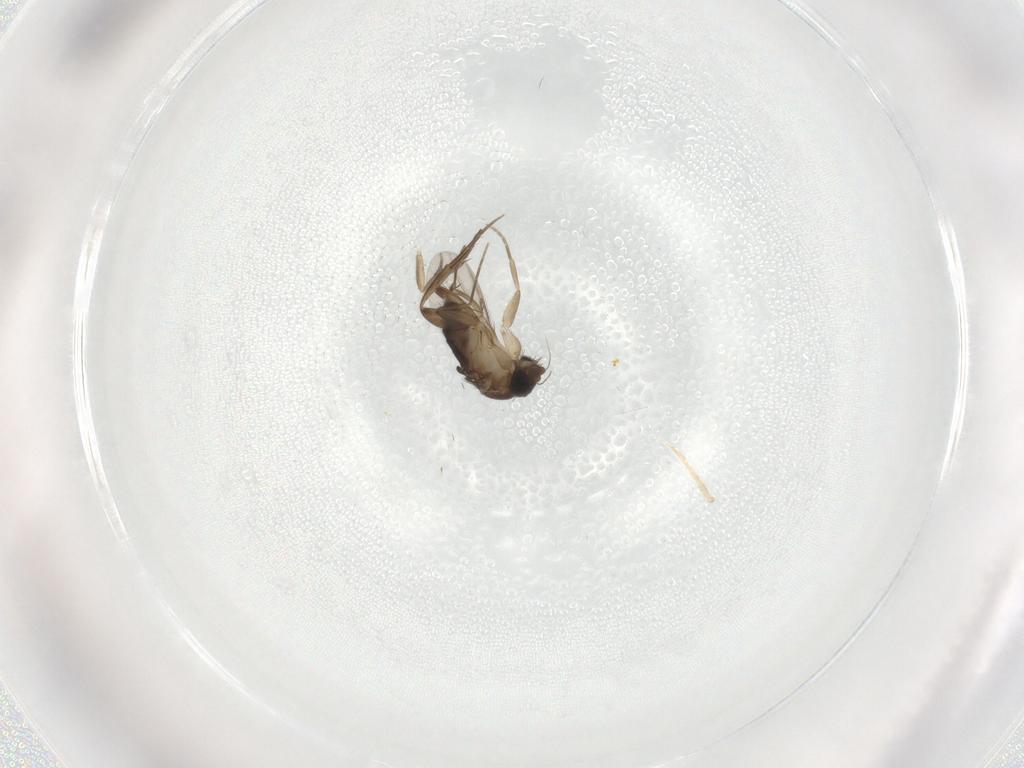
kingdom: Animalia
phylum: Arthropoda
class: Insecta
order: Diptera
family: Phoridae
